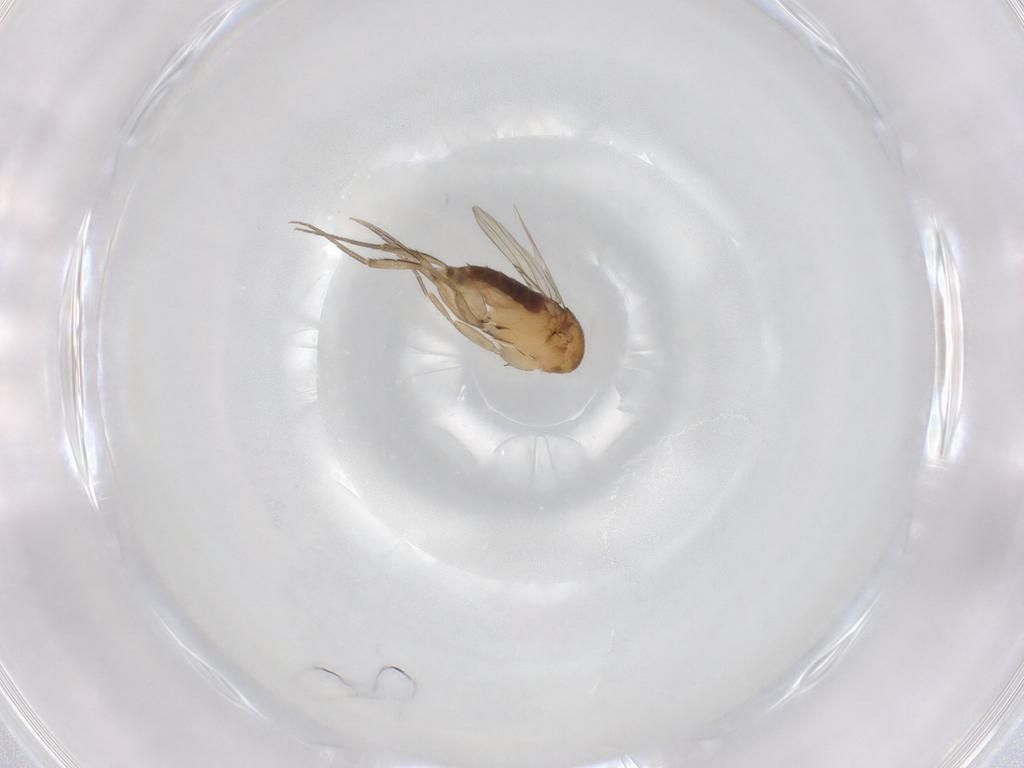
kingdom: Animalia
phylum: Arthropoda
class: Insecta
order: Diptera
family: Phoridae
